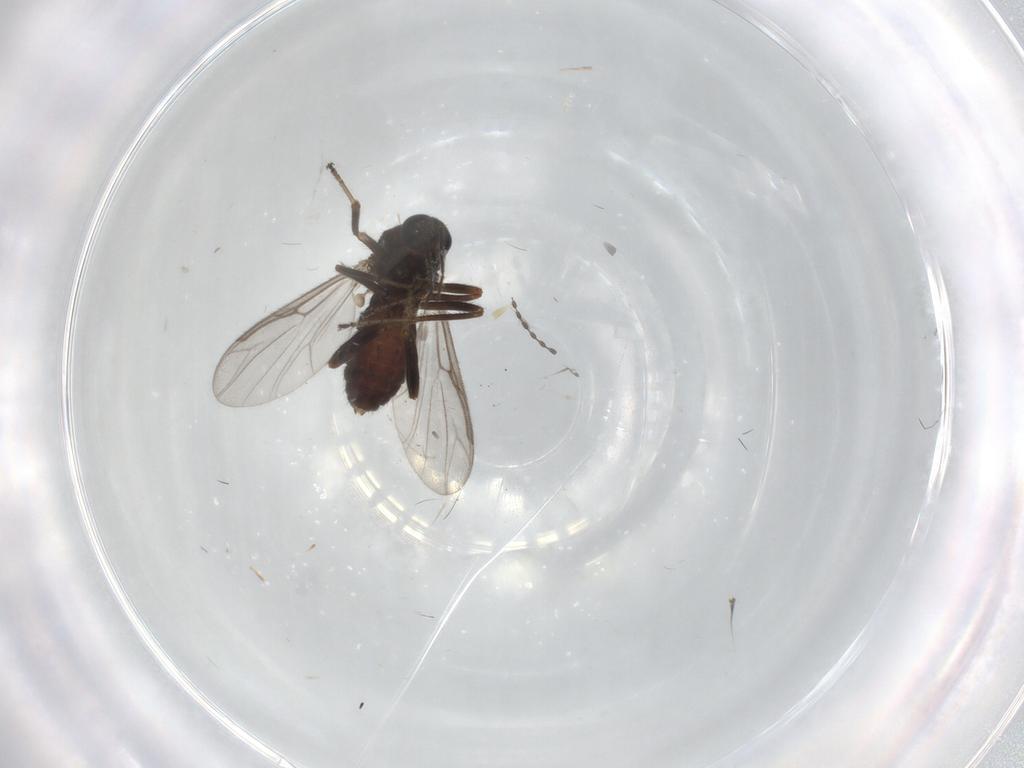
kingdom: Animalia
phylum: Arthropoda
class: Insecta
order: Diptera
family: Ceratopogonidae
